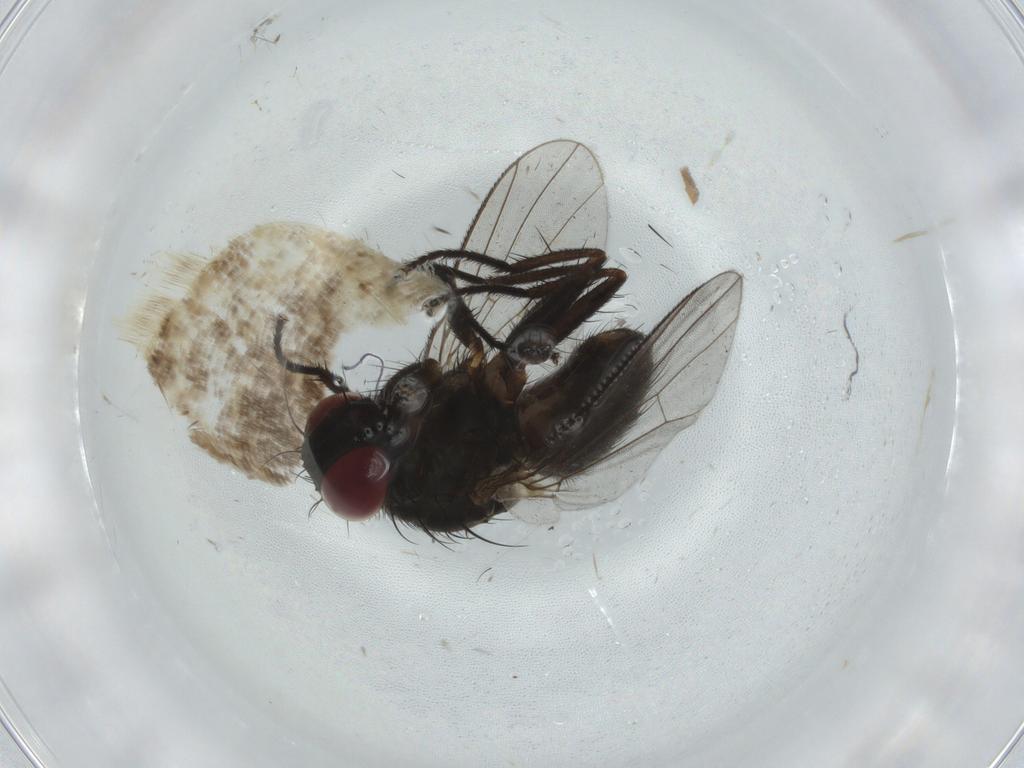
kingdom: Animalia
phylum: Arthropoda
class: Insecta
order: Diptera
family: Muscidae
